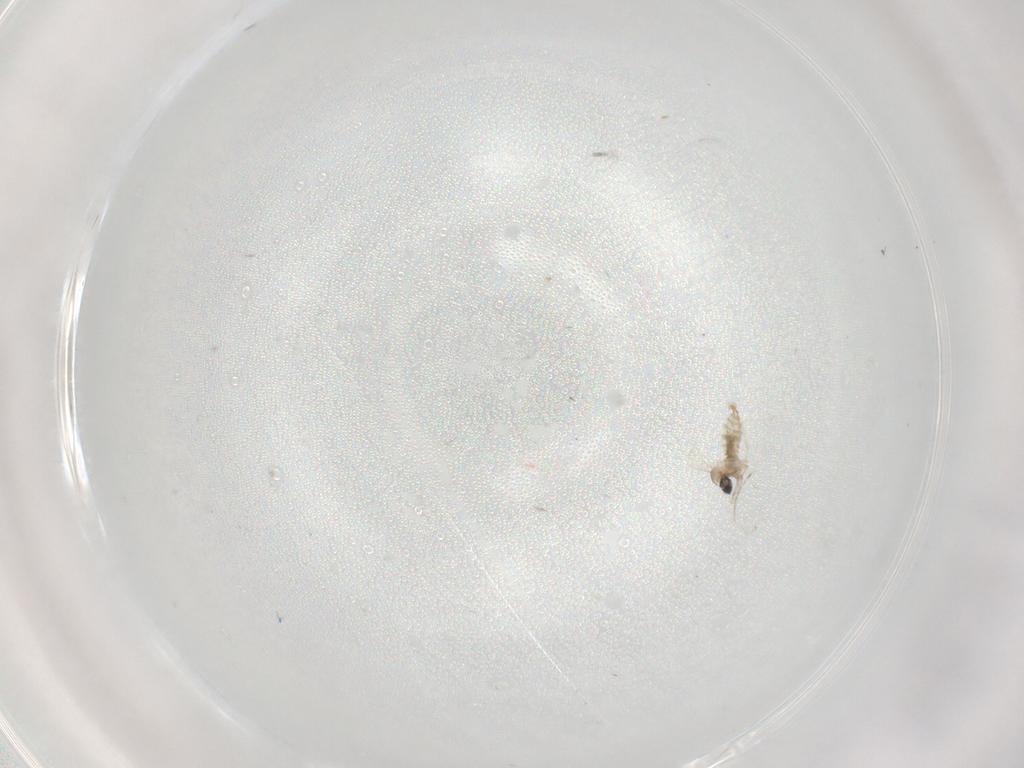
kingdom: Animalia
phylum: Arthropoda
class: Insecta
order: Diptera
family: Cecidomyiidae
